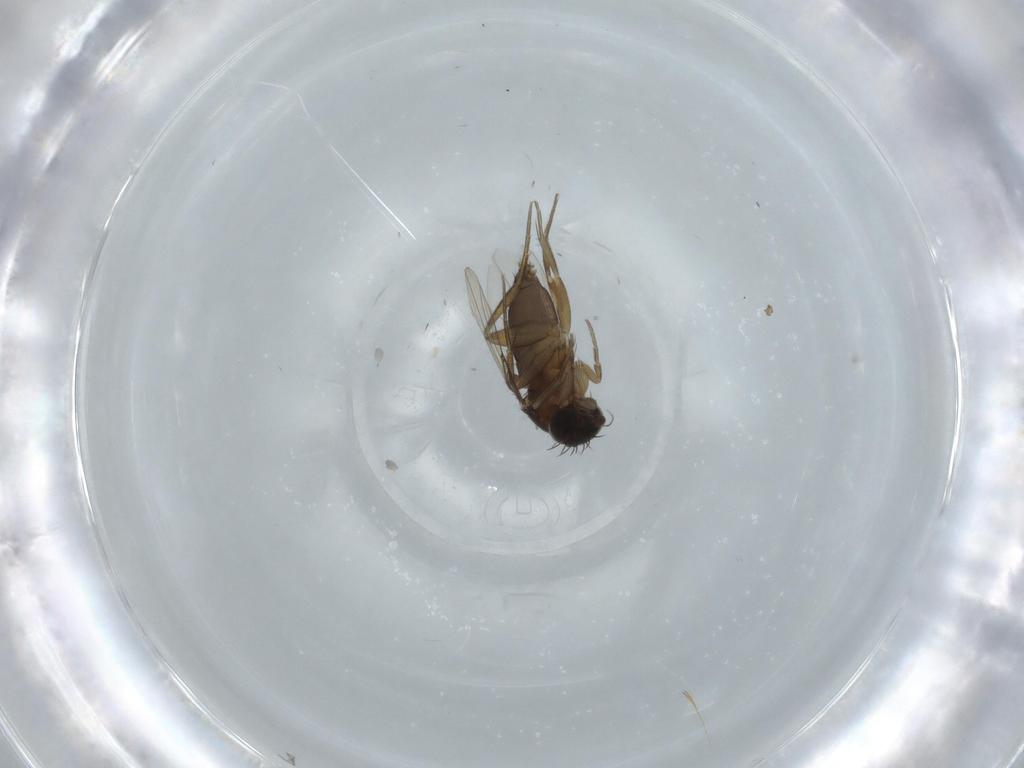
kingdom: Animalia
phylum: Arthropoda
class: Insecta
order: Diptera
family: Phoridae
